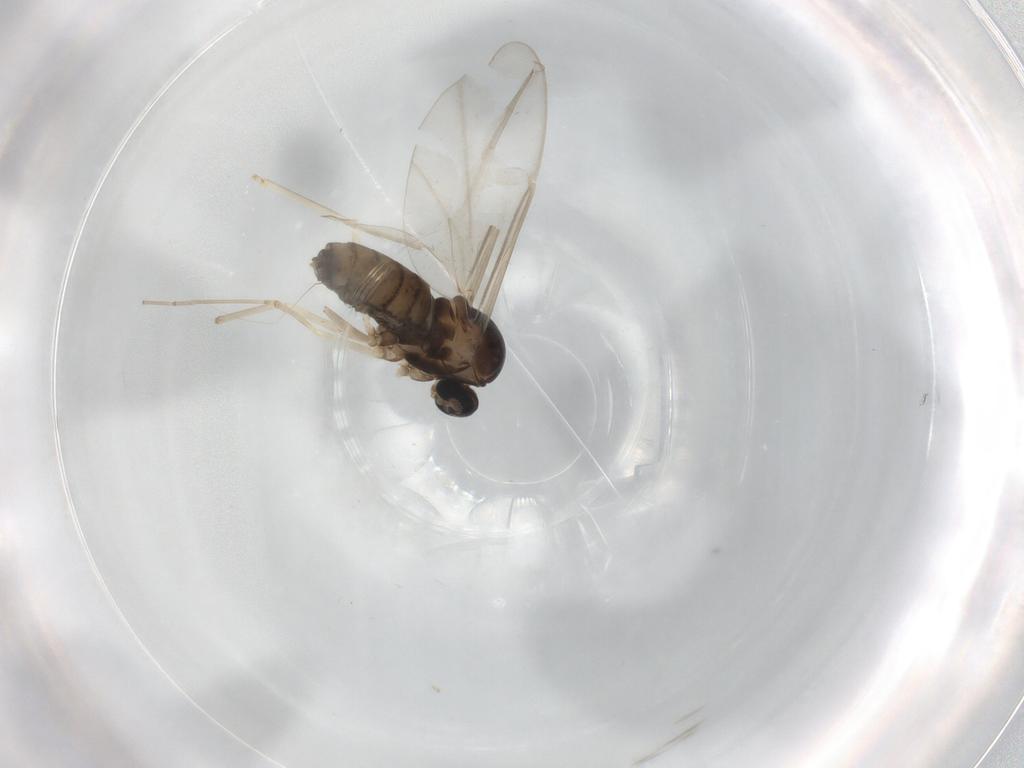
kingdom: Animalia
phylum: Arthropoda
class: Insecta
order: Diptera
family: Cecidomyiidae
